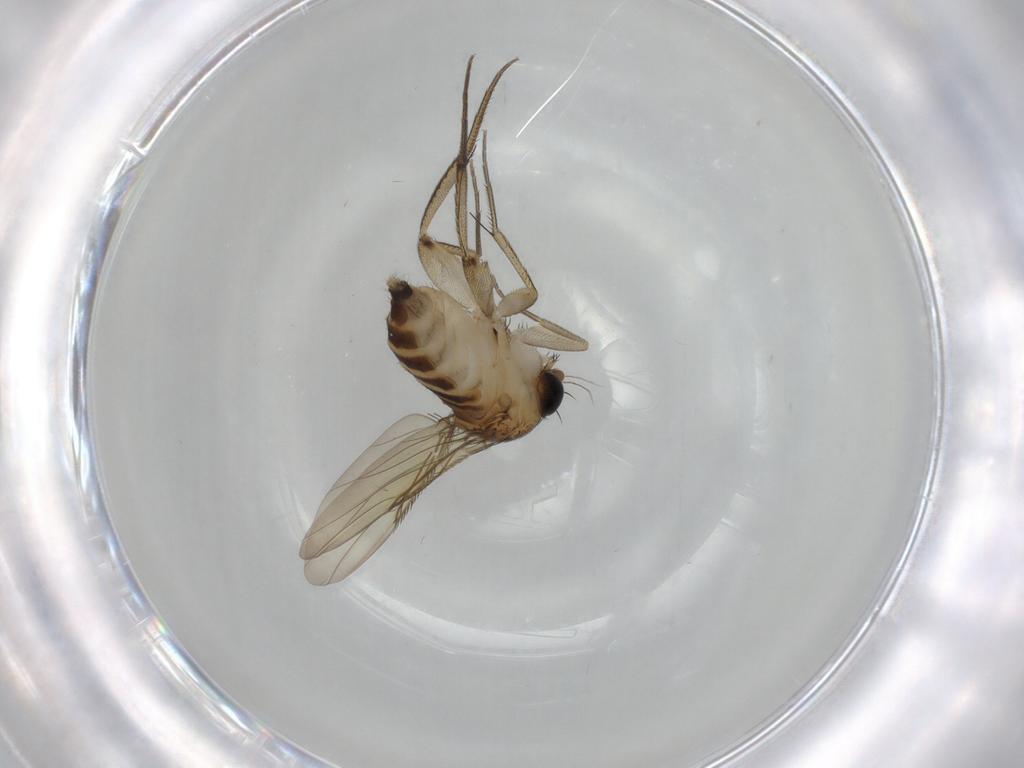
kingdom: Animalia
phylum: Arthropoda
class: Insecta
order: Diptera
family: Phoridae
